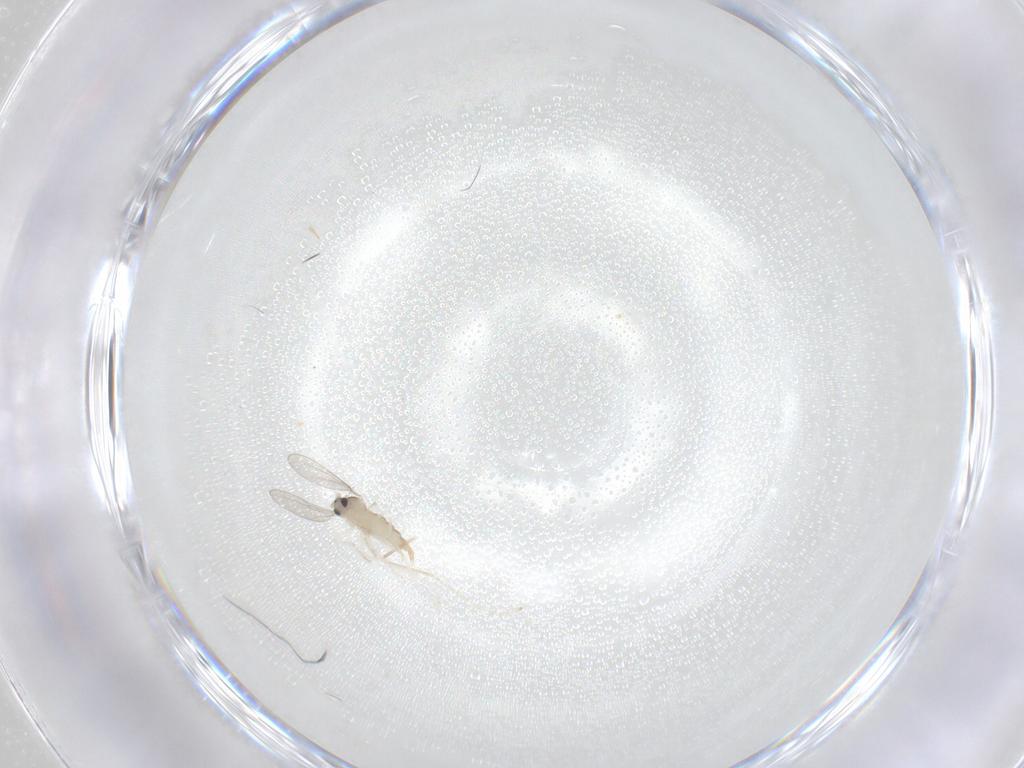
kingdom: Animalia
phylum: Arthropoda
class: Insecta
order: Diptera
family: Cecidomyiidae
